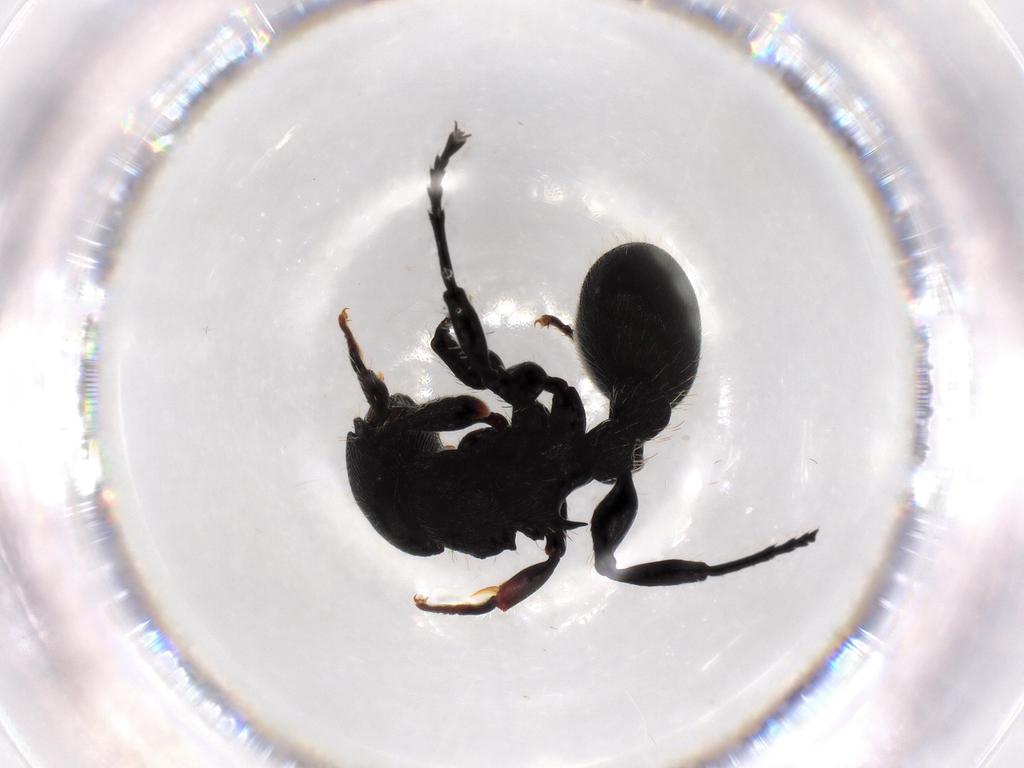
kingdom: Animalia
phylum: Arthropoda
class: Insecta
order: Hymenoptera
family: Formicidae
